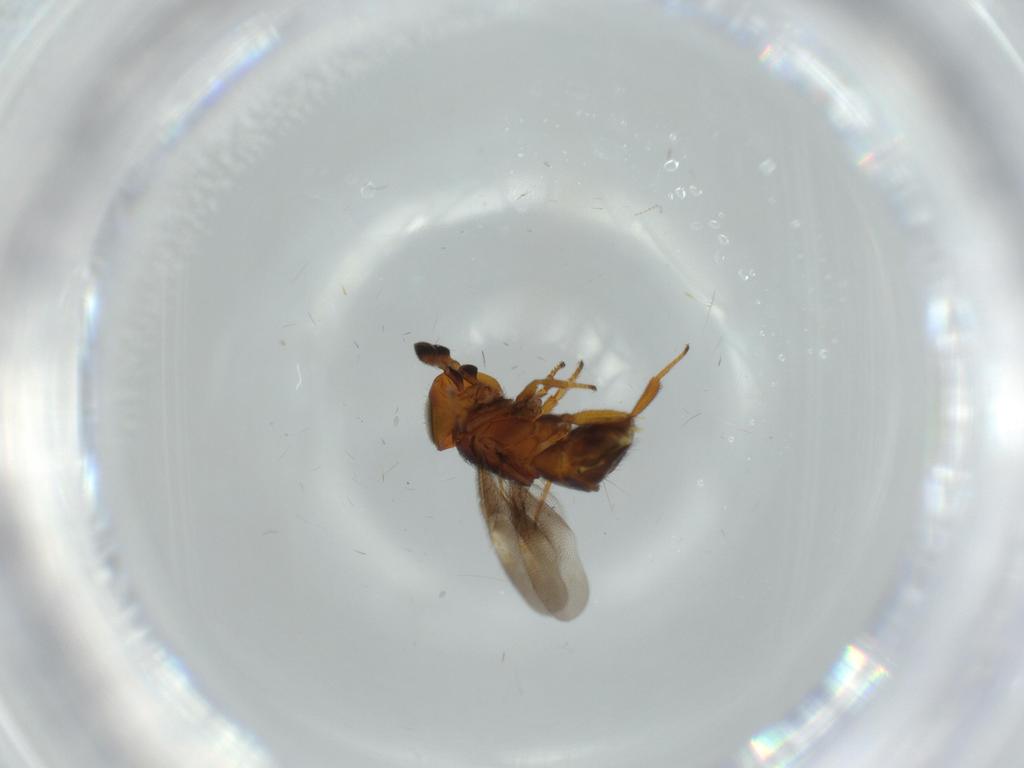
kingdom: Animalia
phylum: Arthropoda
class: Insecta
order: Hymenoptera
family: Encyrtidae
